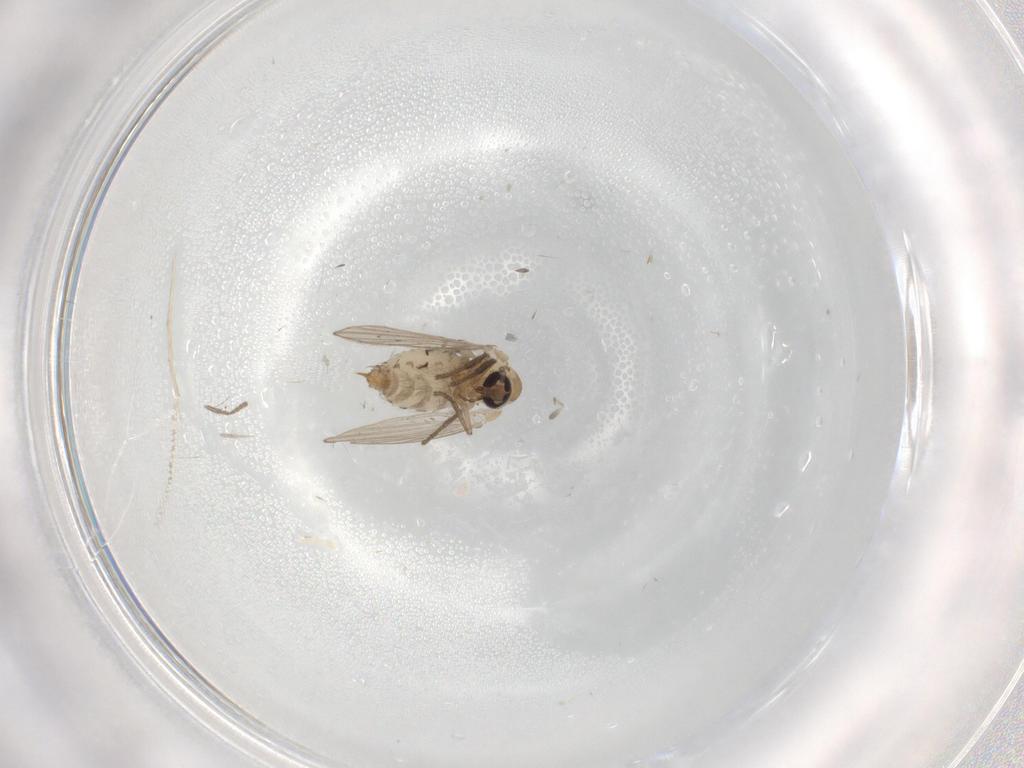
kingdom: Animalia
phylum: Arthropoda
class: Insecta
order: Diptera
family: Psychodidae
